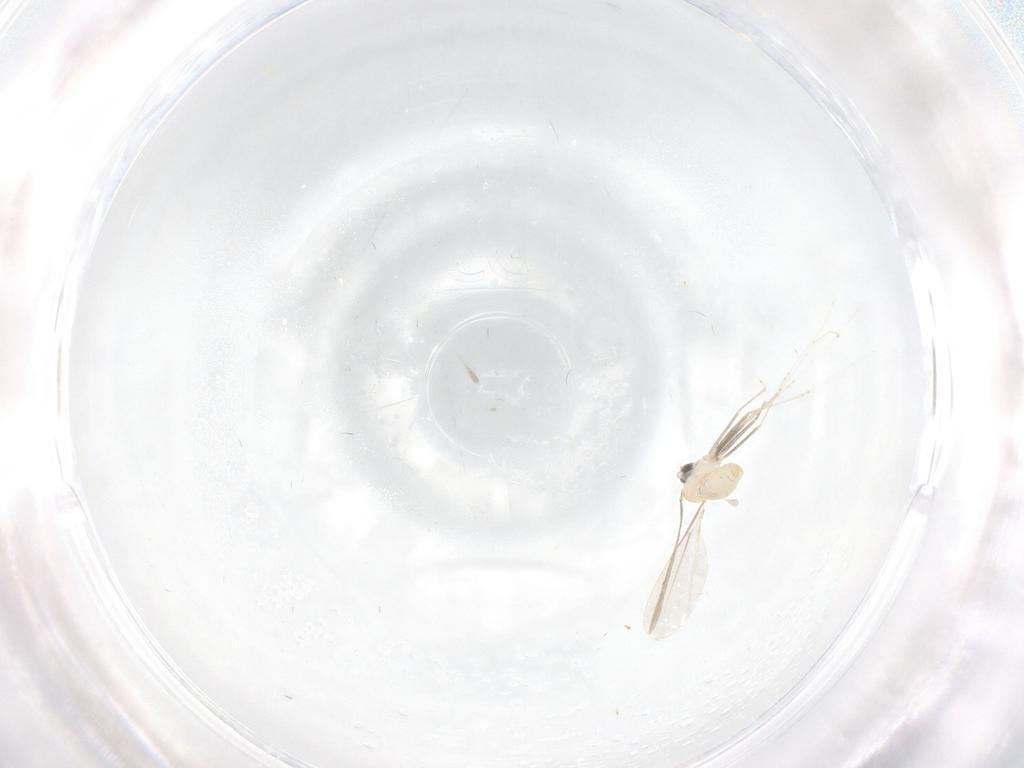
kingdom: Animalia
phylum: Arthropoda
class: Insecta
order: Diptera
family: Cecidomyiidae
